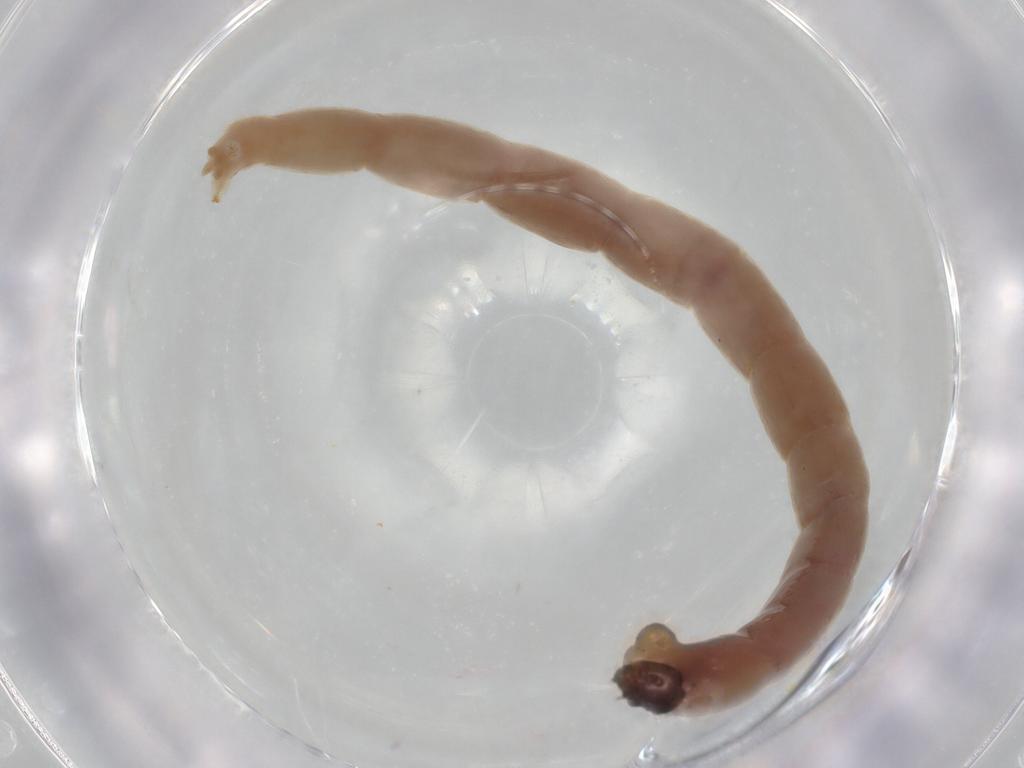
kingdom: Animalia
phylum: Arthropoda
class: Insecta
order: Diptera
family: Chironomidae
